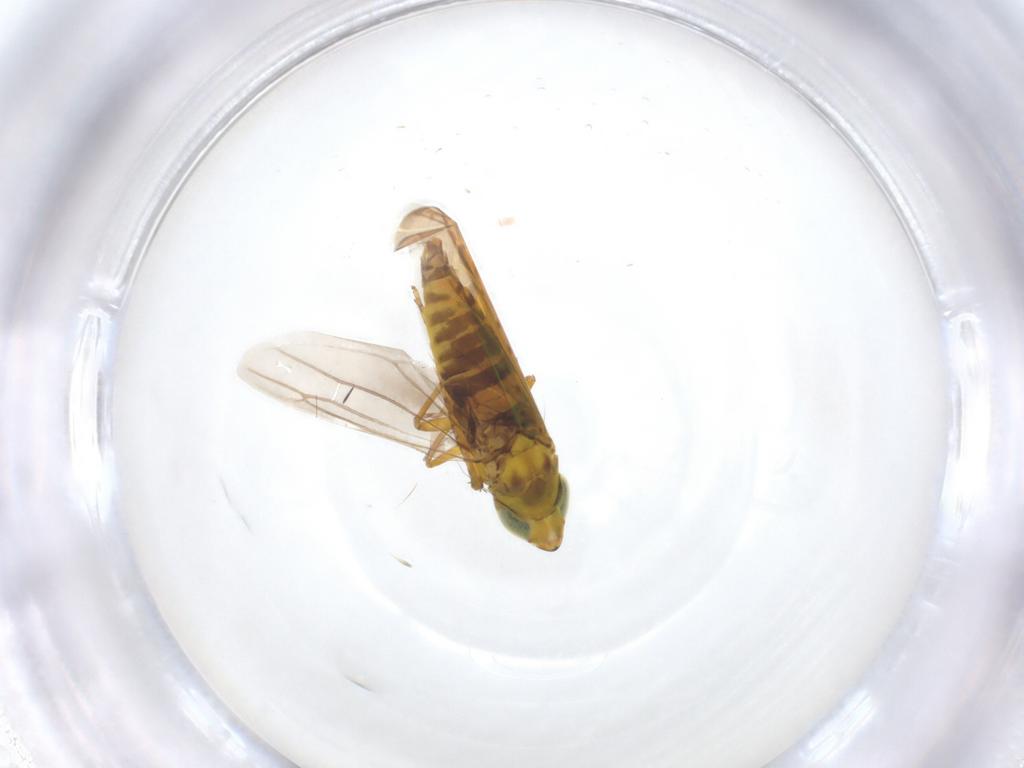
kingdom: Animalia
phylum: Arthropoda
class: Insecta
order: Hemiptera
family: Cicadellidae
